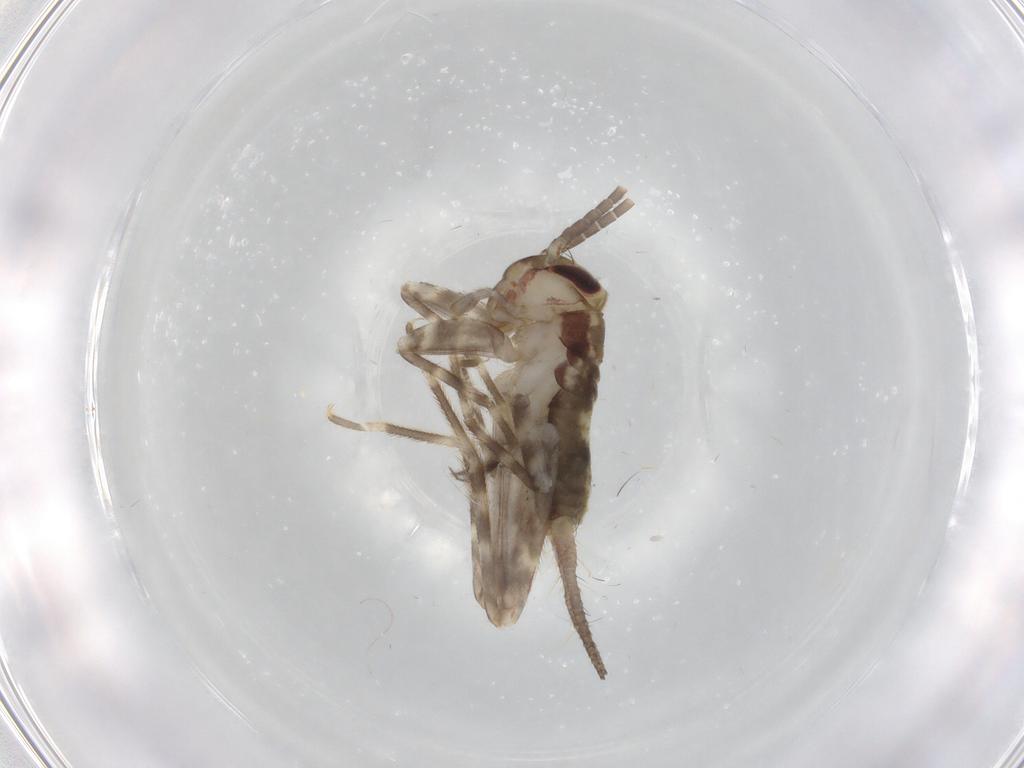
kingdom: Animalia
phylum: Arthropoda
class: Insecta
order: Orthoptera
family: Gryllidae
